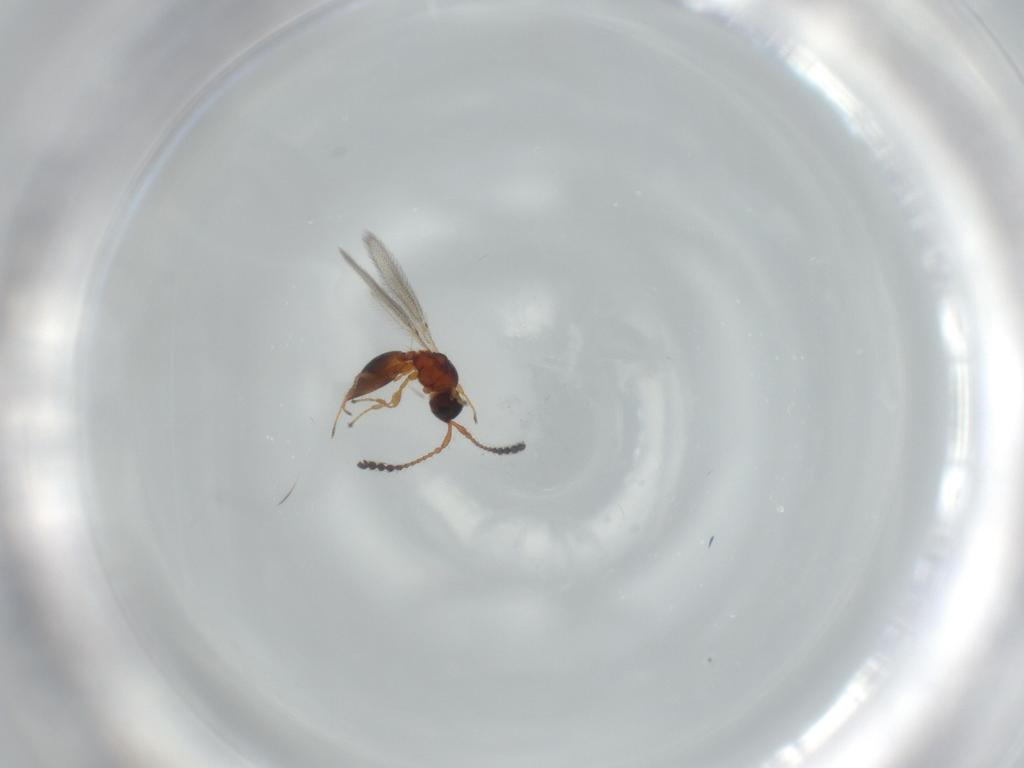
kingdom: Animalia
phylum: Arthropoda
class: Insecta
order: Hymenoptera
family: Diapriidae
